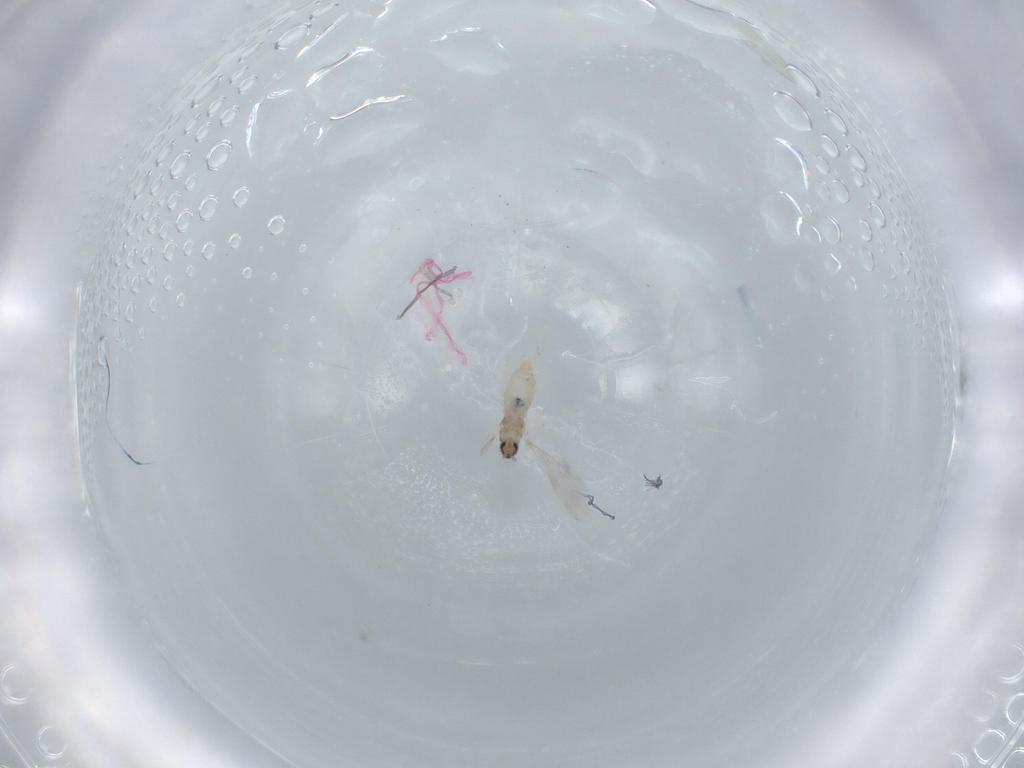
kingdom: Animalia
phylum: Arthropoda
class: Insecta
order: Diptera
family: Cecidomyiidae
